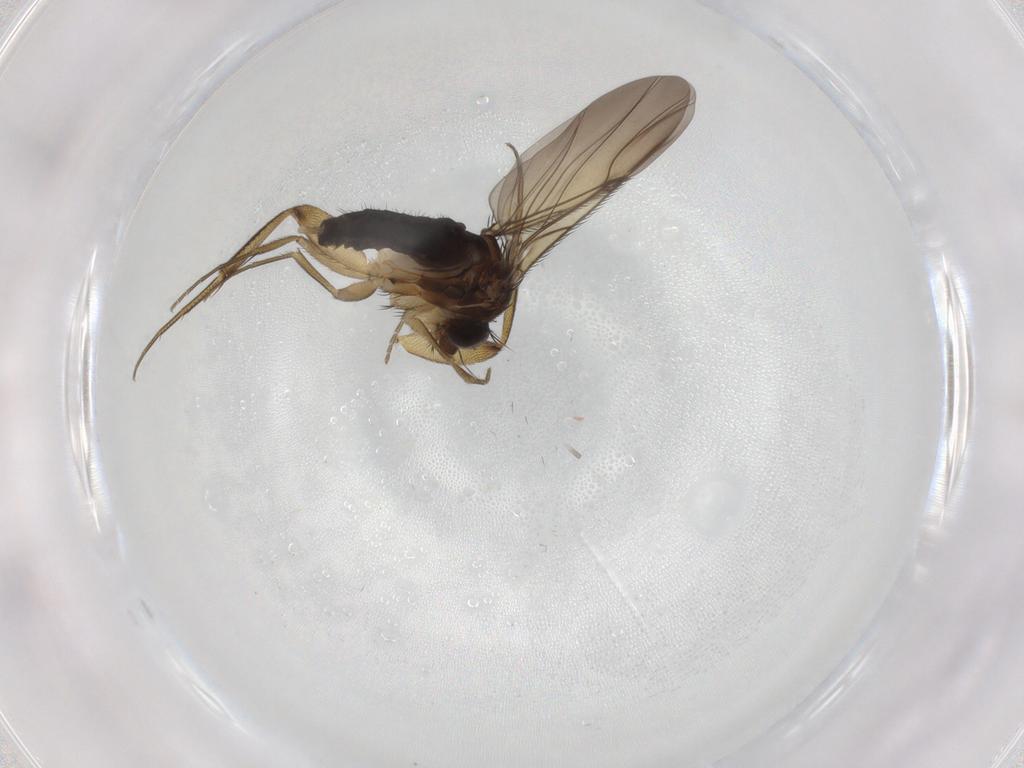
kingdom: Animalia
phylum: Arthropoda
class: Insecta
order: Diptera
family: Phoridae
